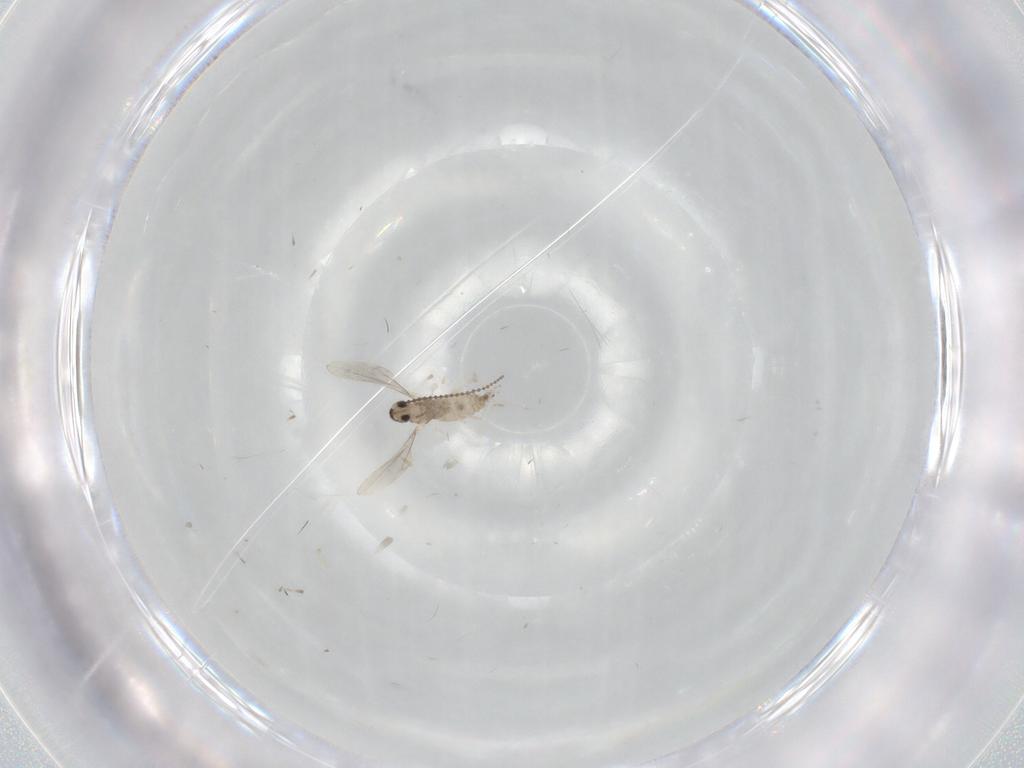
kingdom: Animalia
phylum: Arthropoda
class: Insecta
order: Diptera
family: Cecidomyiidae
